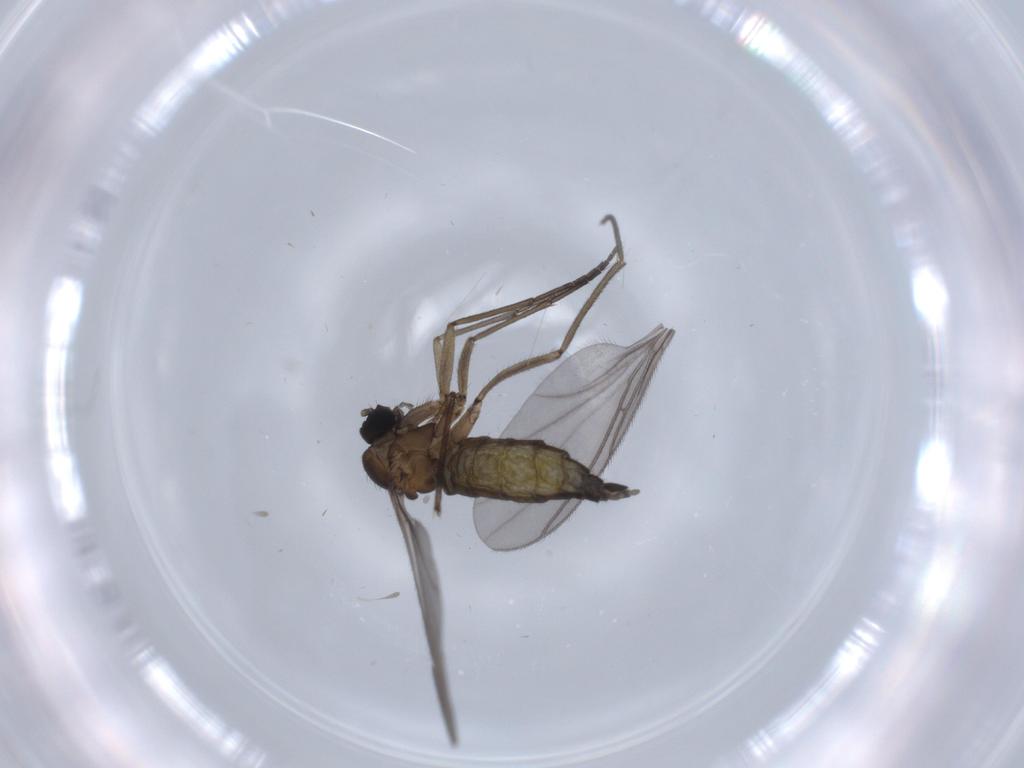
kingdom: Animalia
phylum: Arthropoda
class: Insecta
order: Diptera
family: Sciaridae
